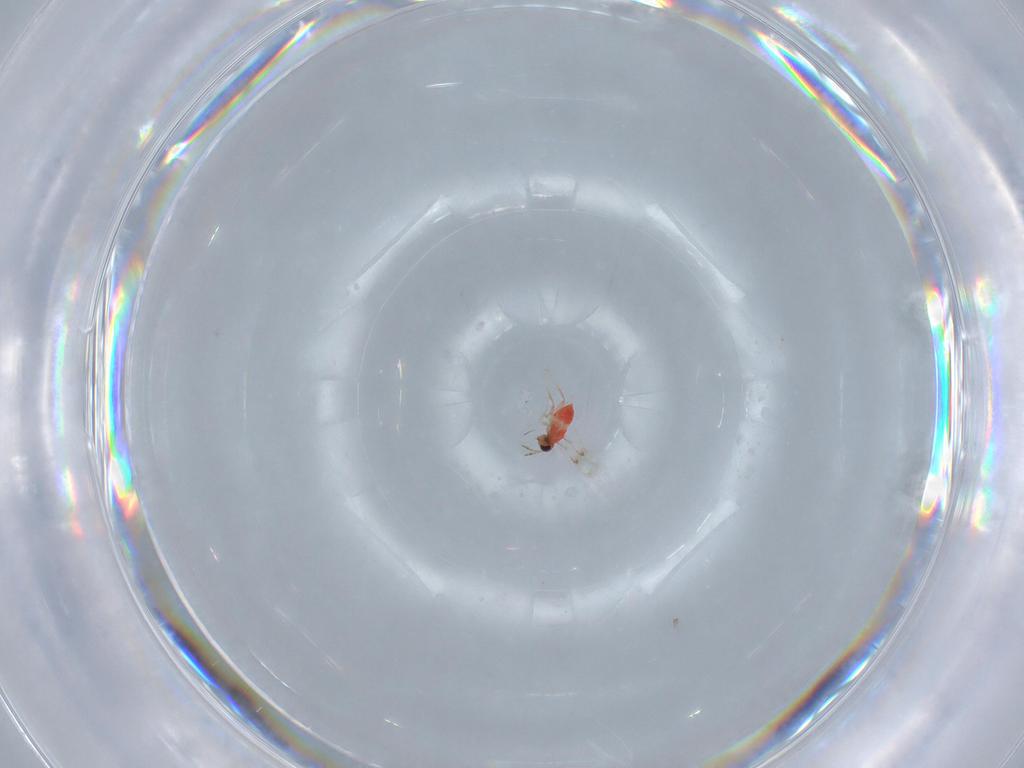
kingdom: Animalia
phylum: Arthropoda
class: Insecta
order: Hymenoptera
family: Trichogrammatidae
